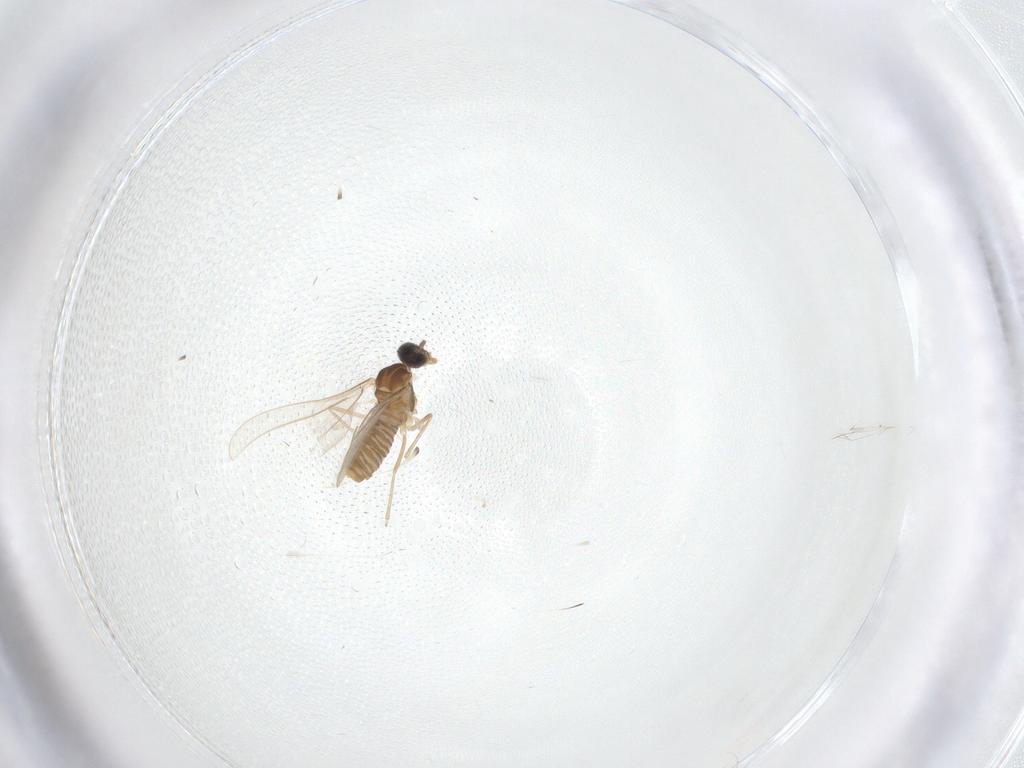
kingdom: Animalia
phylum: Arthropoda
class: Insecta
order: Diptera
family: Cecidomyiidae
